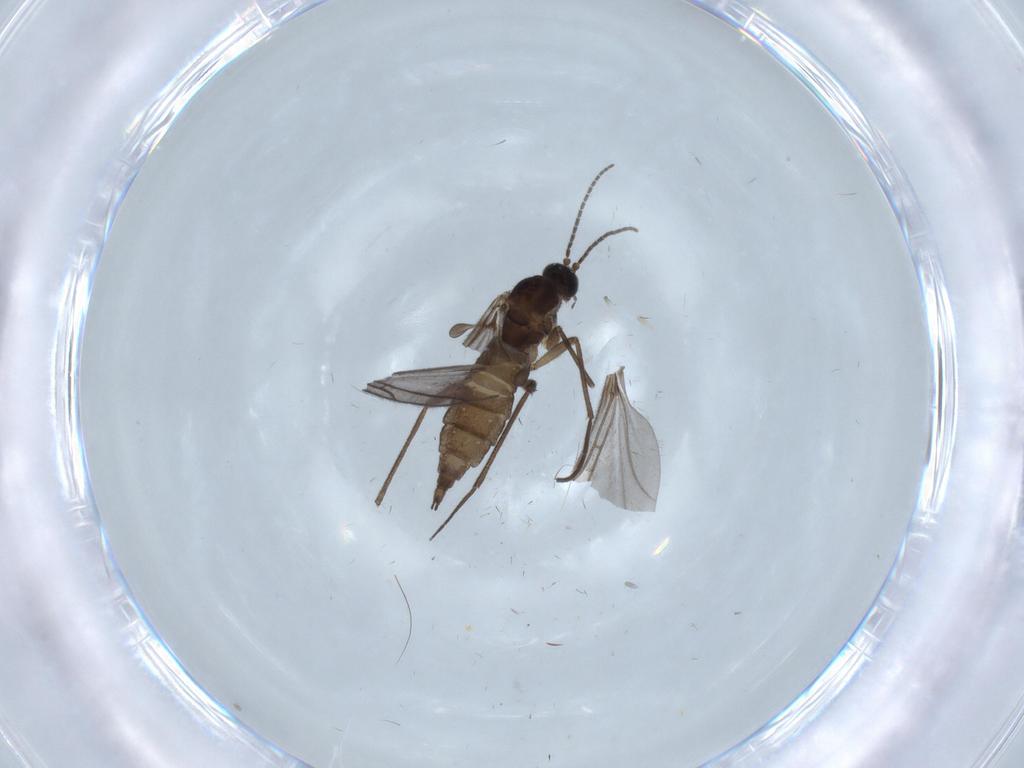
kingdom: Animalia
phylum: Arthropoda
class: Insecta
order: Diptera
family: Sciaridae
